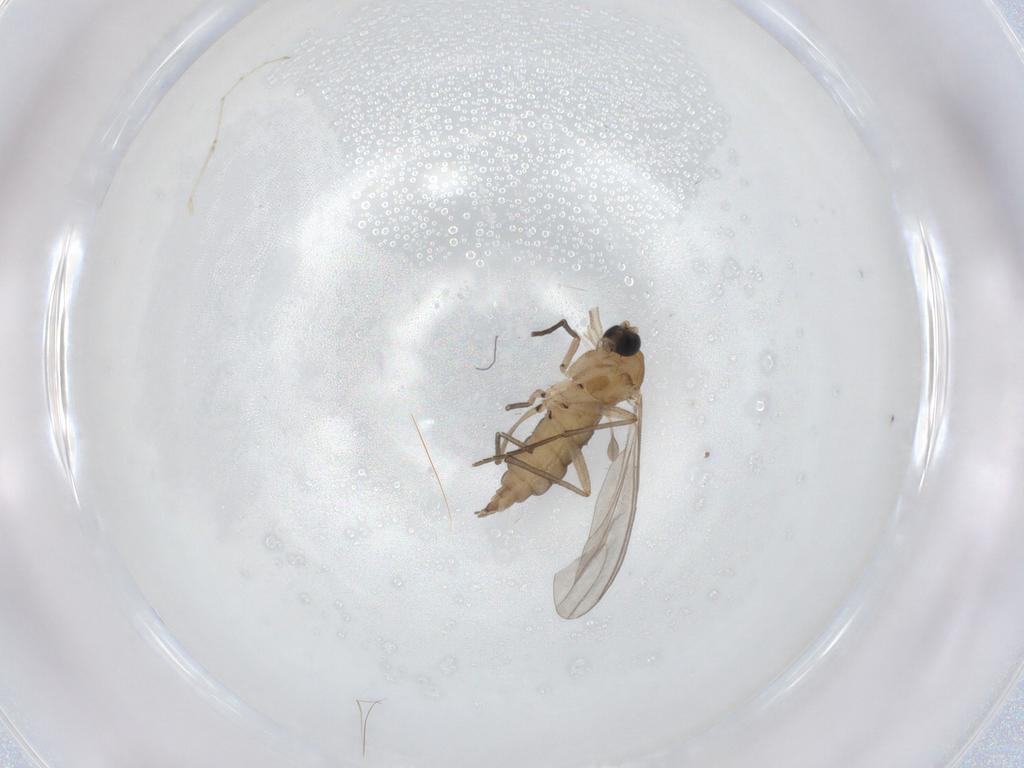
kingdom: Animalia
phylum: Arthropoda
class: Insecta
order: Diptera
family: Sciaridae
